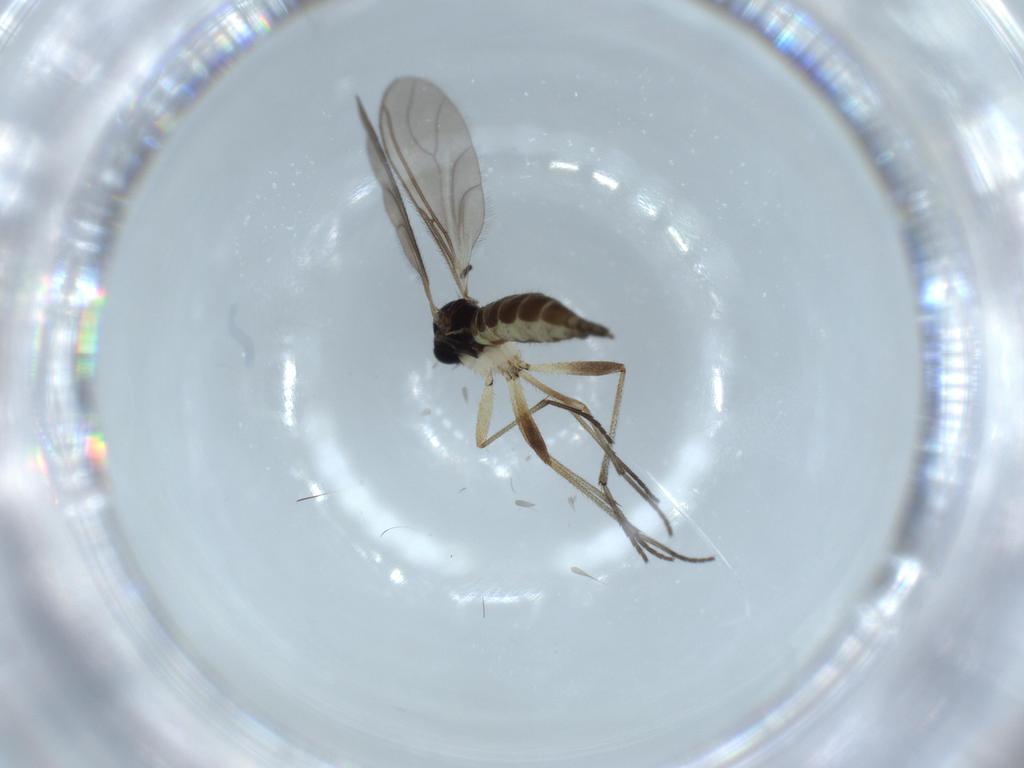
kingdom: Animalia
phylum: Arthropoda
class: Insecta
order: Diptera
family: Sciaridae
